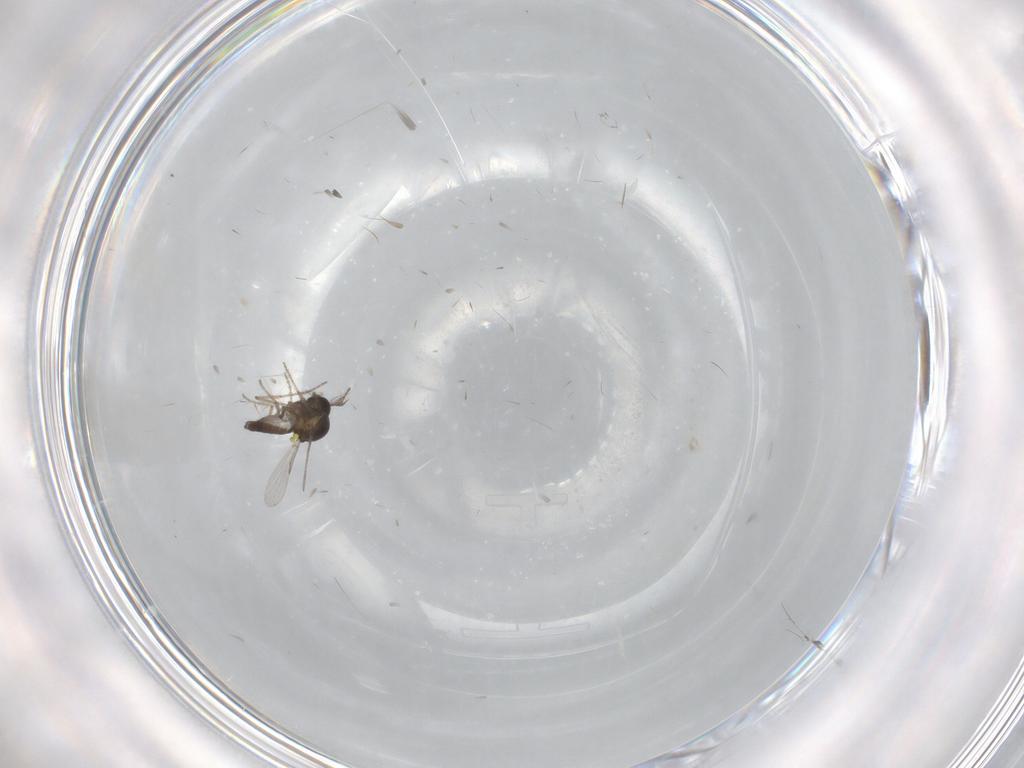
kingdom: Animalia
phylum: Arthropoda
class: Insecta
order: Diptera
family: Ceratopogonidae
